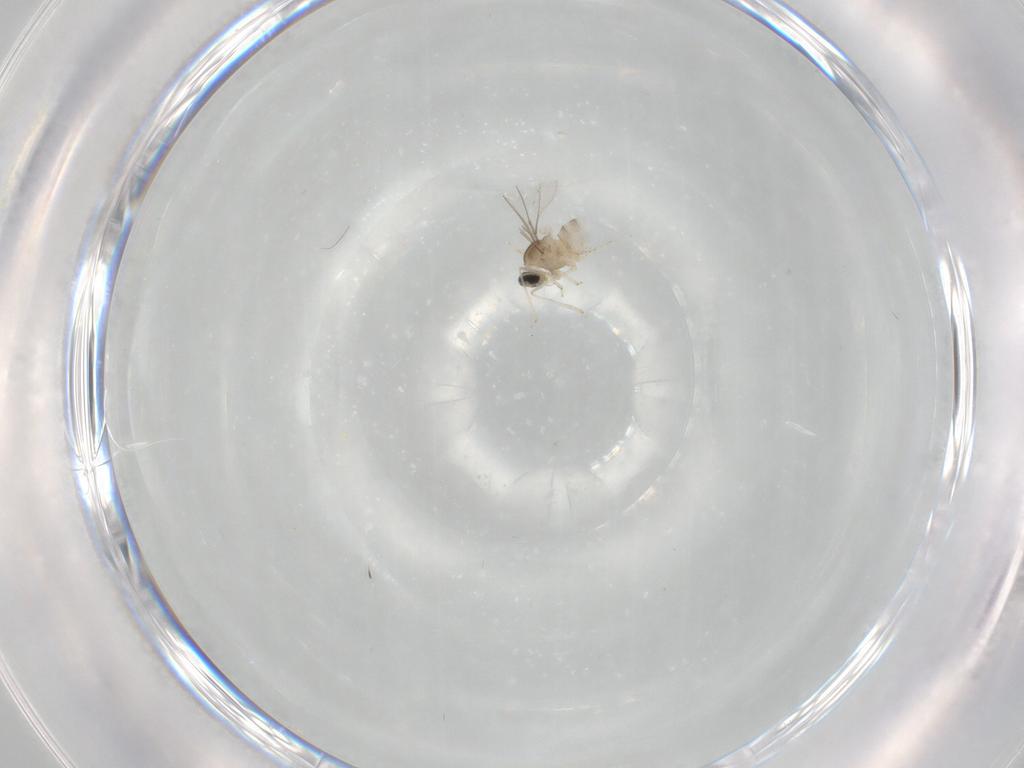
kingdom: Animalia
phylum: Arthropoda
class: Insecta
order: Diptera
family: Cecidomyiidae
